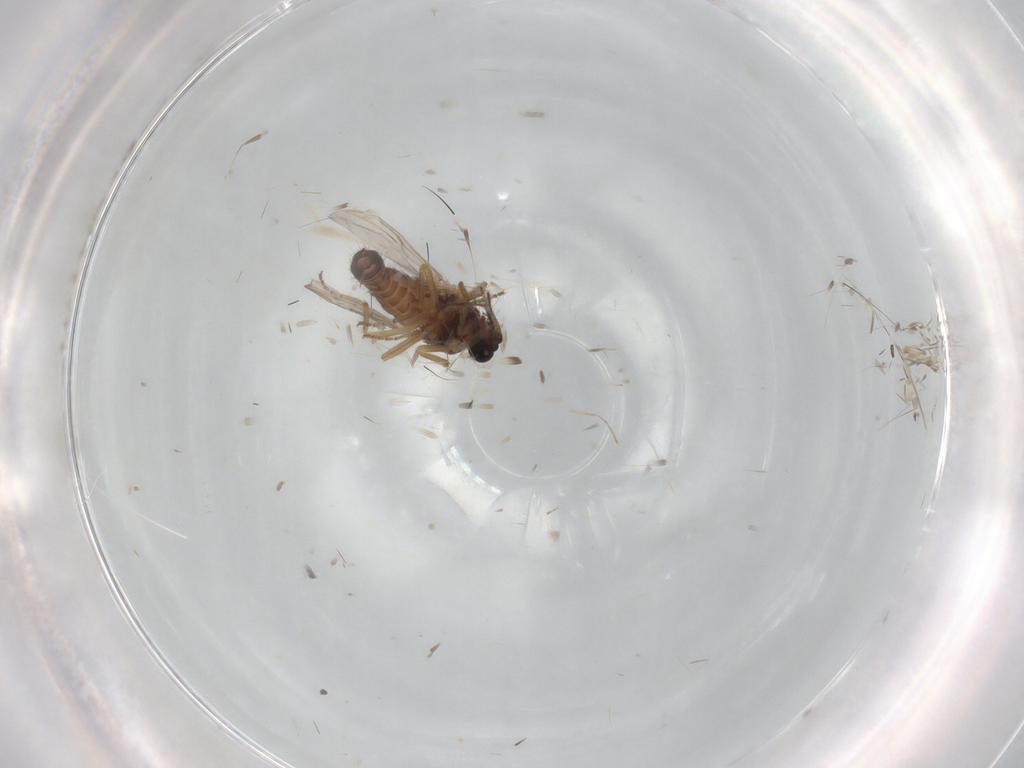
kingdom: Animalia
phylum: Arthropoda
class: Insecta
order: Diptera
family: Ceratopogonidae
